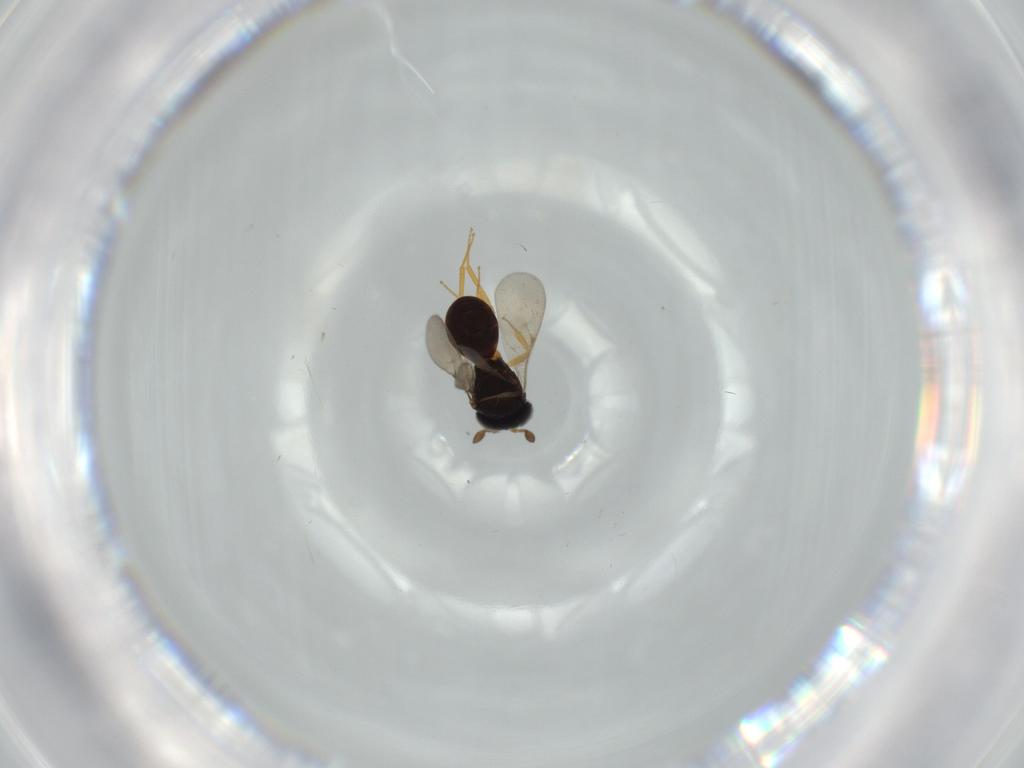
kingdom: Animalia
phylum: Arthropoda
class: Insecta
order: Hymenoptera
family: Scelionidae
